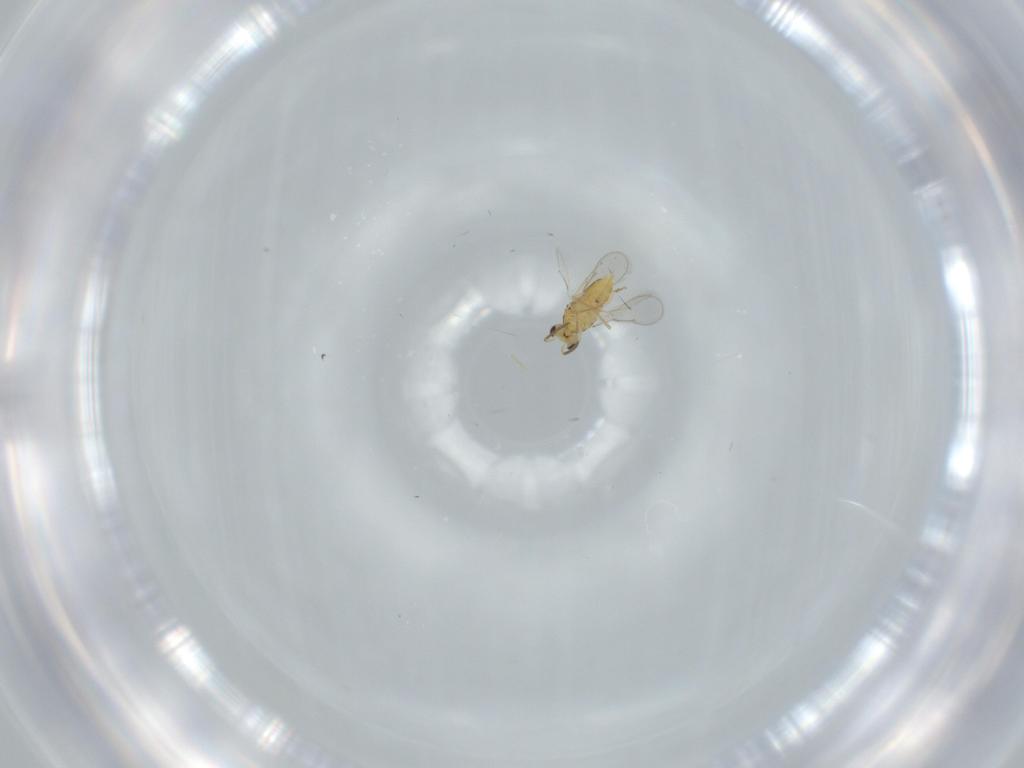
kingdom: Animalia
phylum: Arthropoda
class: Insecta
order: Hymenoptera
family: Aphelinidae
